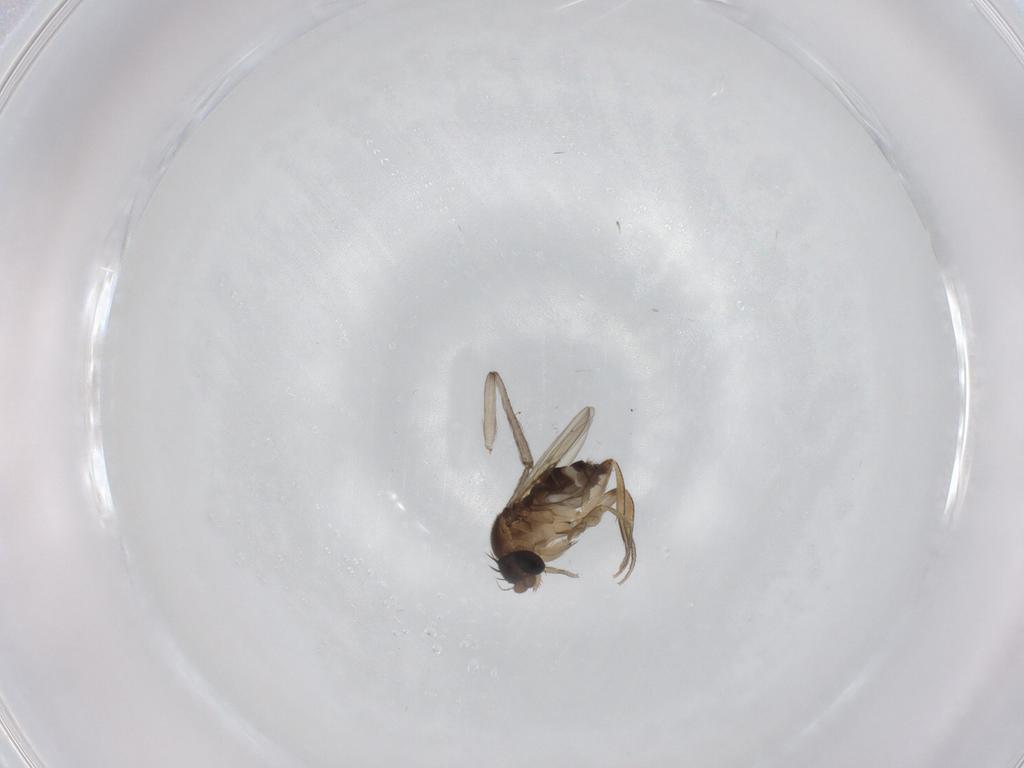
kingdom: Animalia
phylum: Arthropoda
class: Insecta
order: Diptera
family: Phoridae
